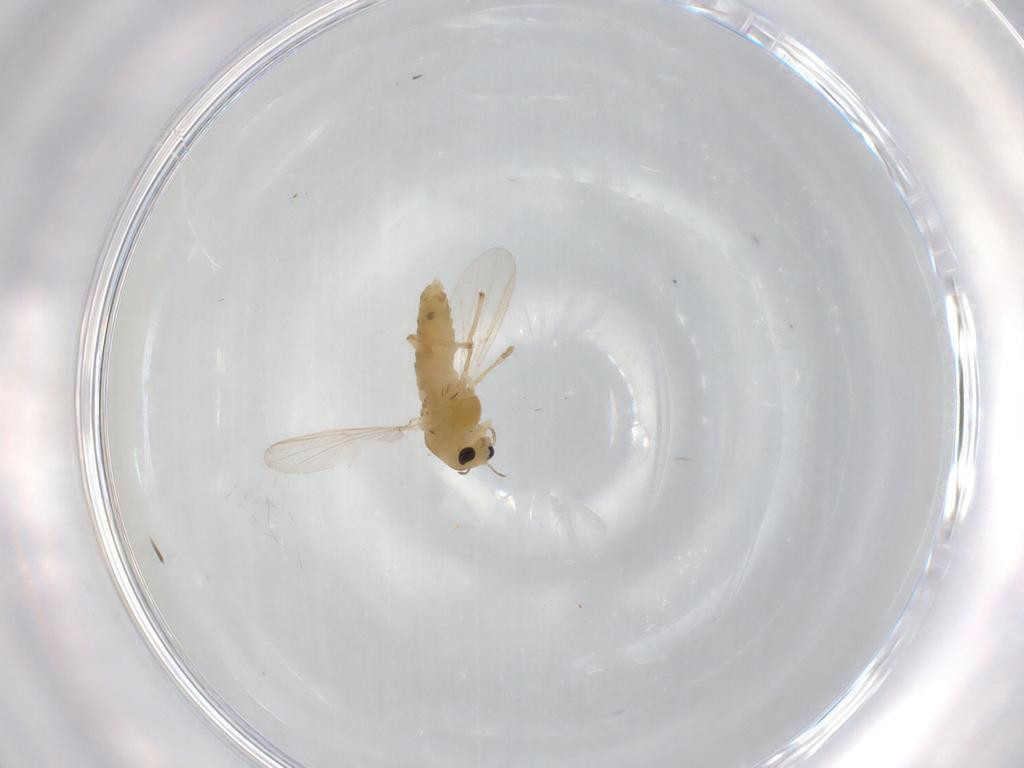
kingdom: Animalia
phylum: Arthropoda
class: Insecta
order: Diptera
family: Chironomidae
